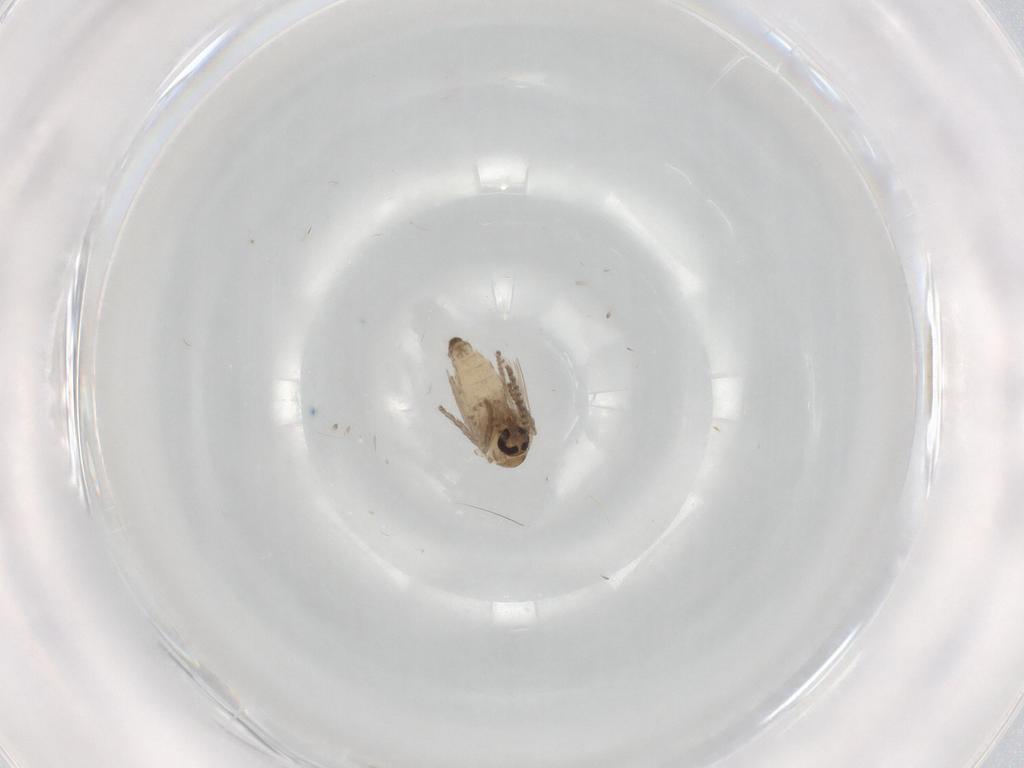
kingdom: Animalia
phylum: Arthropoda
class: Insecta
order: Diptera
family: Psychodidae
